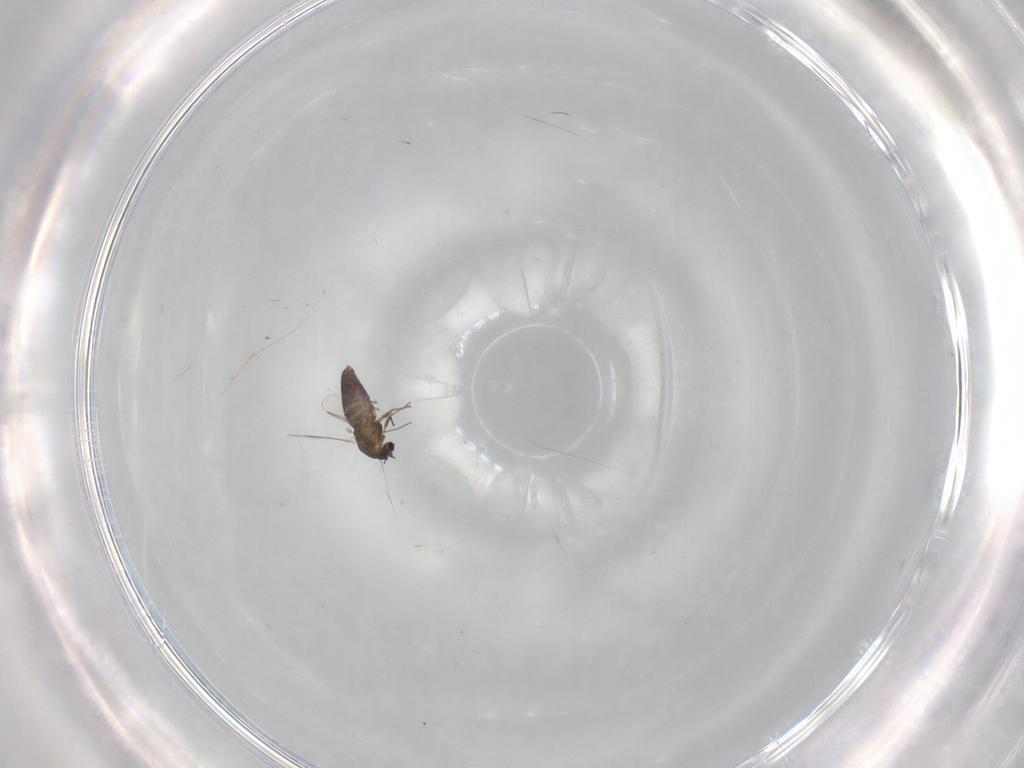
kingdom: Animalia
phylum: Arthropoda
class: Insecta
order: Diptera
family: Chironomidae
